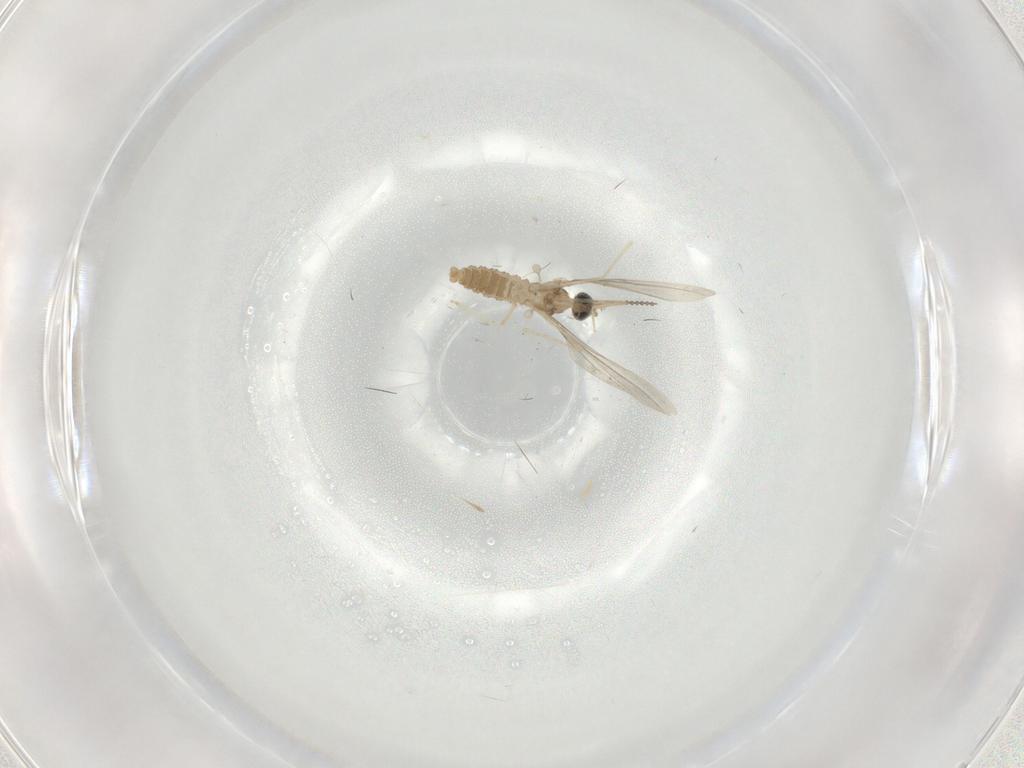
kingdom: Animalia
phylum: Arthropoda
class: Insecta
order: Diptera
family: Cecidomyiidae
